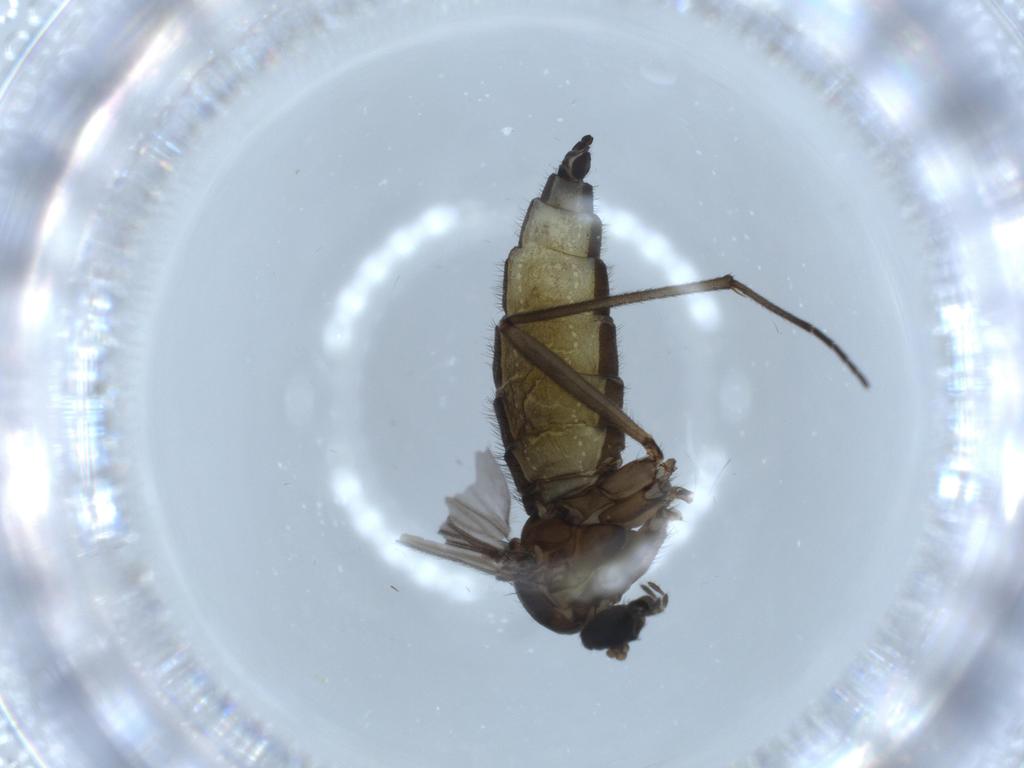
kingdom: Animalia
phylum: Arthropoda
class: Insecta
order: Diptera
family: Sciaridae
